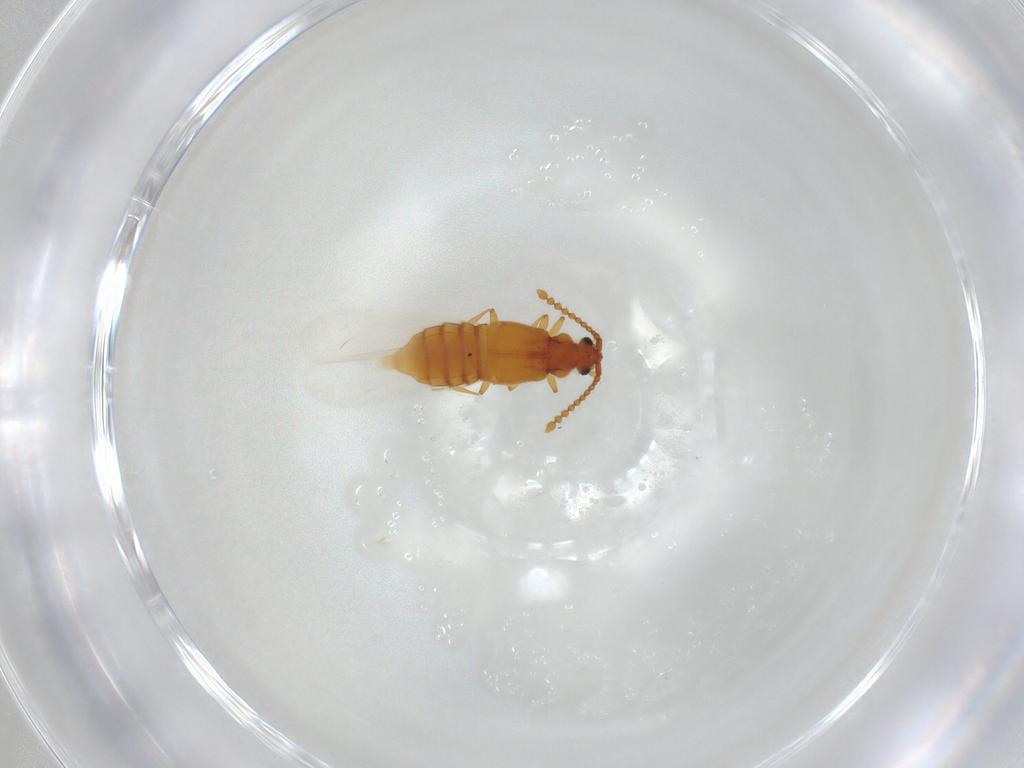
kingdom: Animalia
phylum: Arthropoda
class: Insecta
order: Coleoptera
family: Staphylinidae
